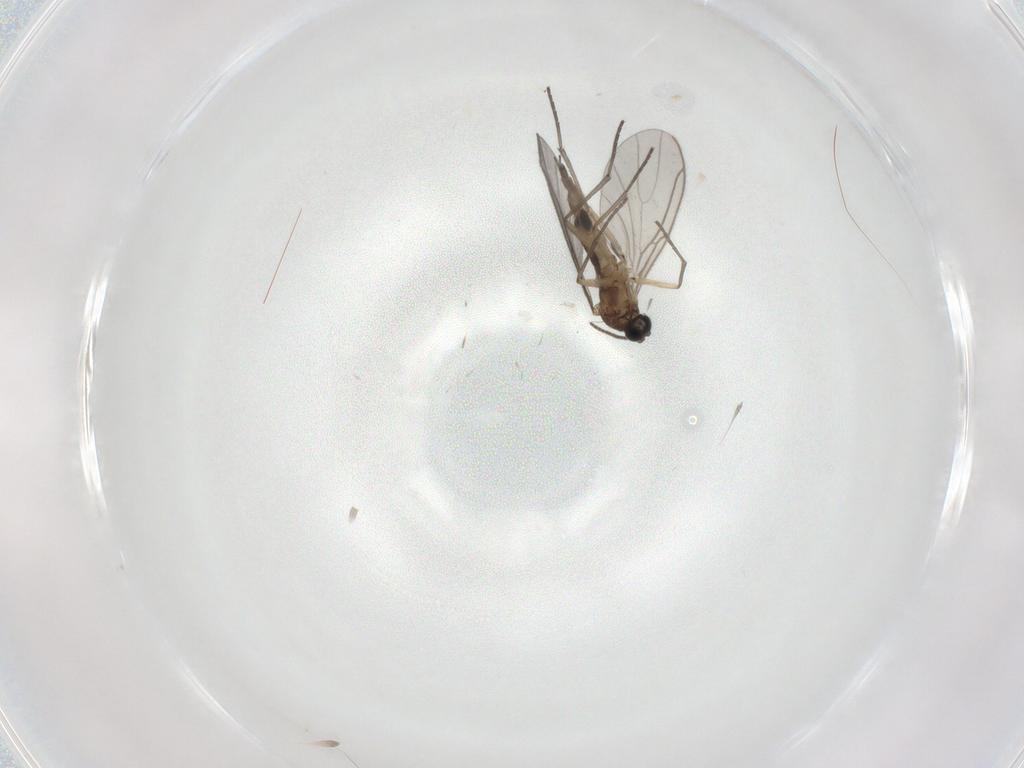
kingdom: Animalia
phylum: Arthropoda
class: Insecta
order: Diptera
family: Sciaridae
